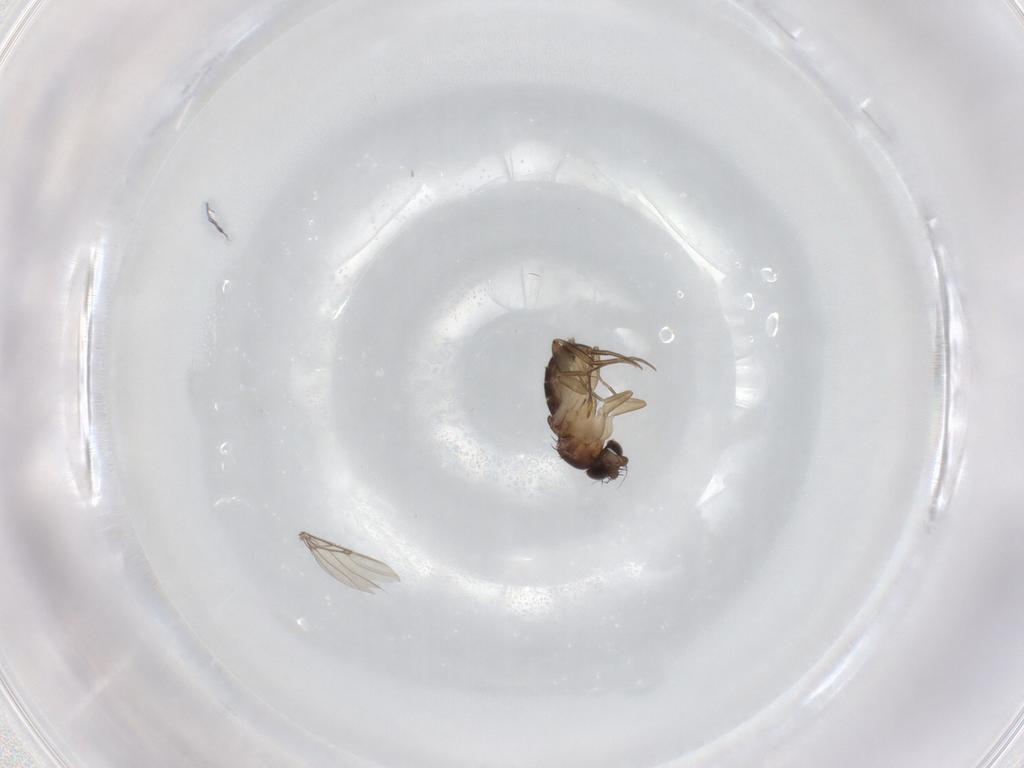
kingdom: Animalia
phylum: Arthropoda
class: Insecta
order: Diptera
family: Phoridae
